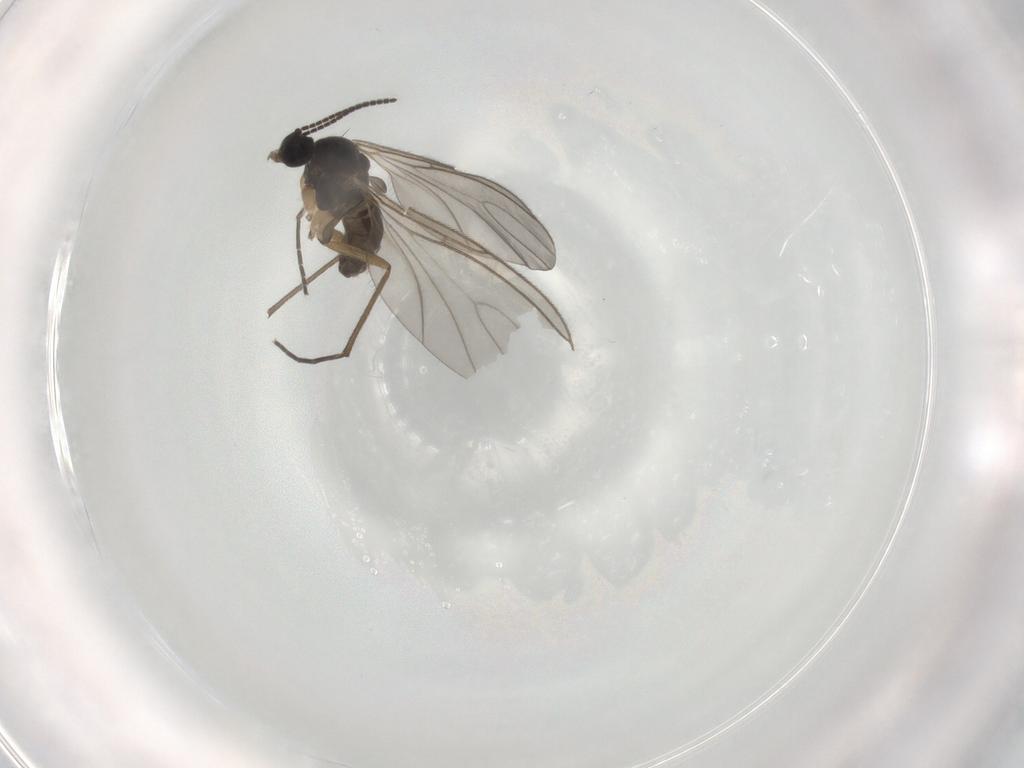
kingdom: Animalia
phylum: Arthropoda
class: Insecta
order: Diptera
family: Sciaridae
